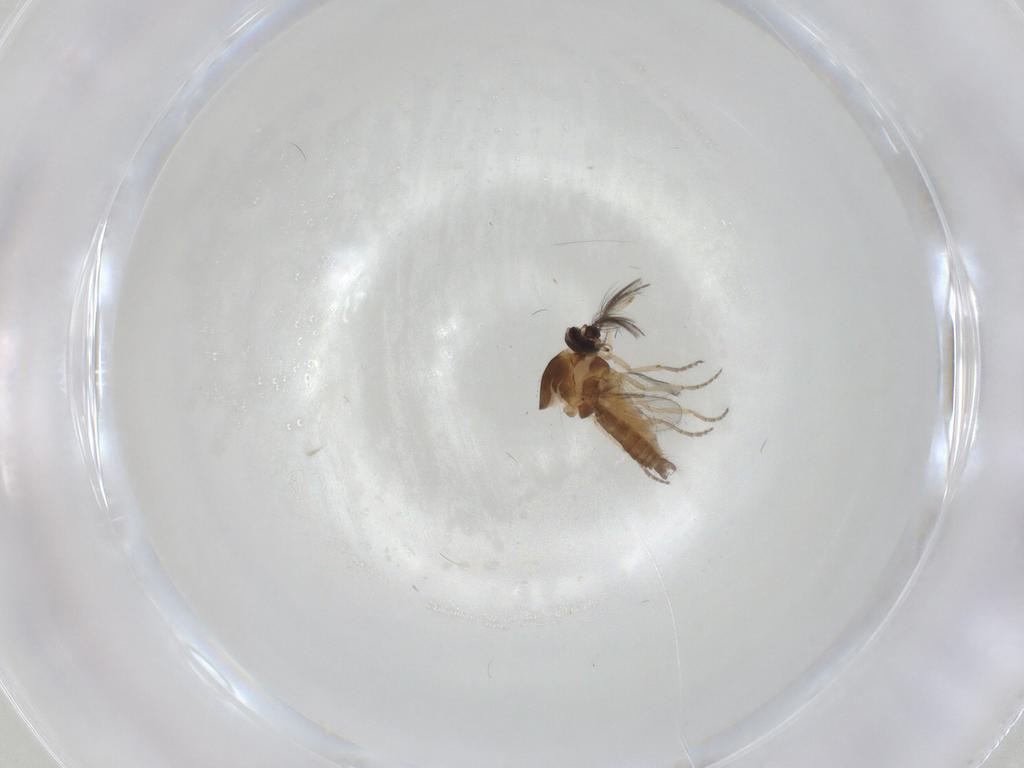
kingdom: Animalia
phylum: Arthropoda
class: Insecta
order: Diptera
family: Ceratopogonidae
